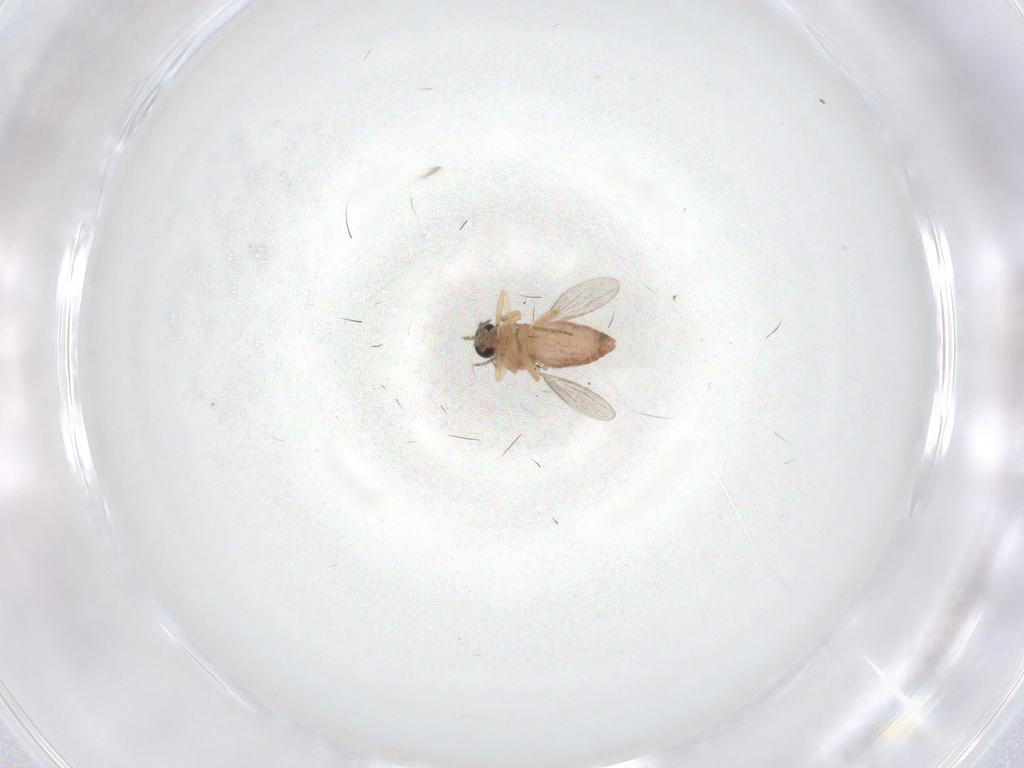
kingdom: Animalia
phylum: Arthropoda
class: Insecta
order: Diptera
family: Ceratopogonidae
